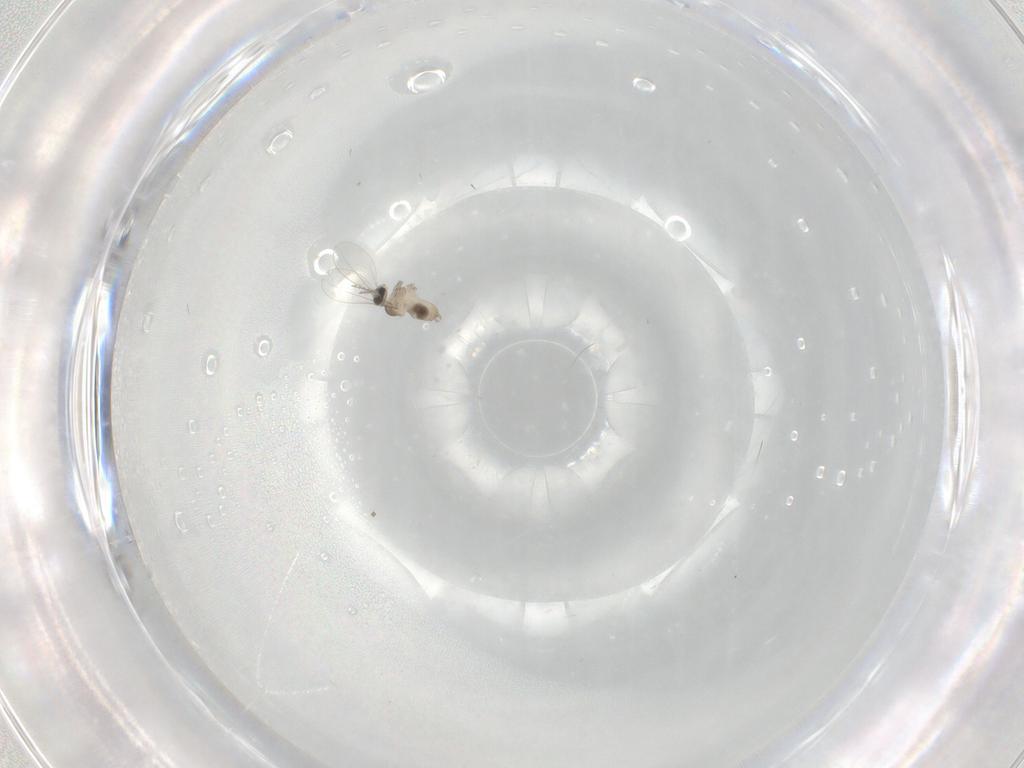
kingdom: Animalia
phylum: Arthropoda
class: Insecta
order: Diptera
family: Cecidomyiidae
